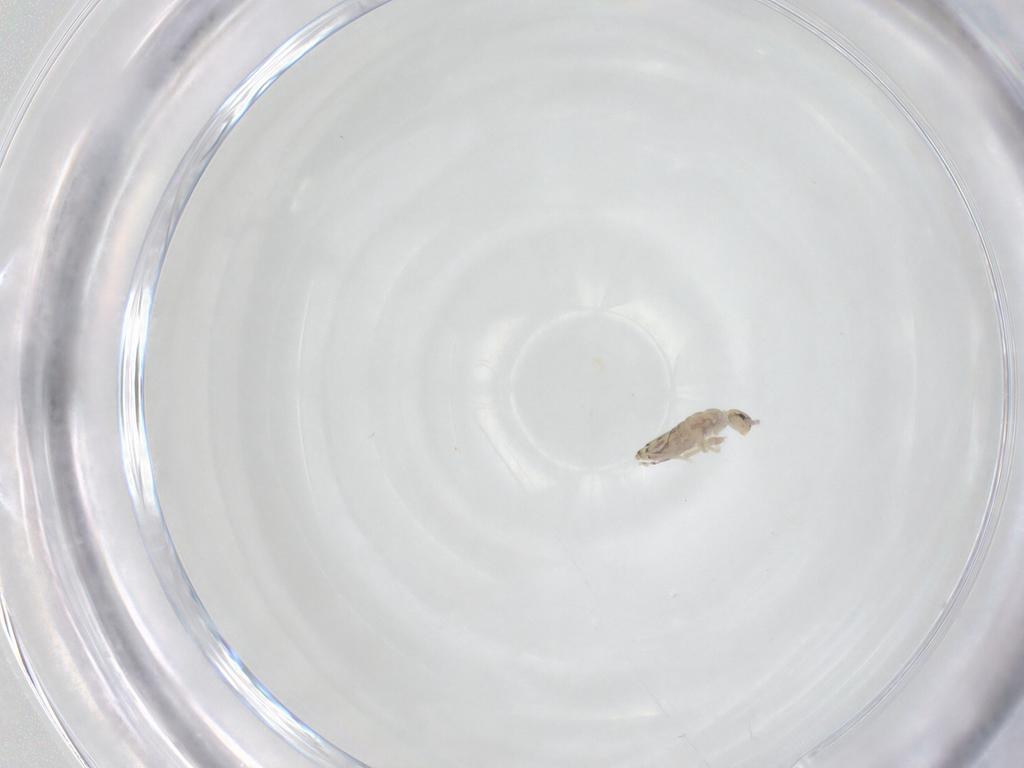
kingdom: Animalia
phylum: Arthropoda
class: Collembola
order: Entomobryomorpha
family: Entomobryidae
